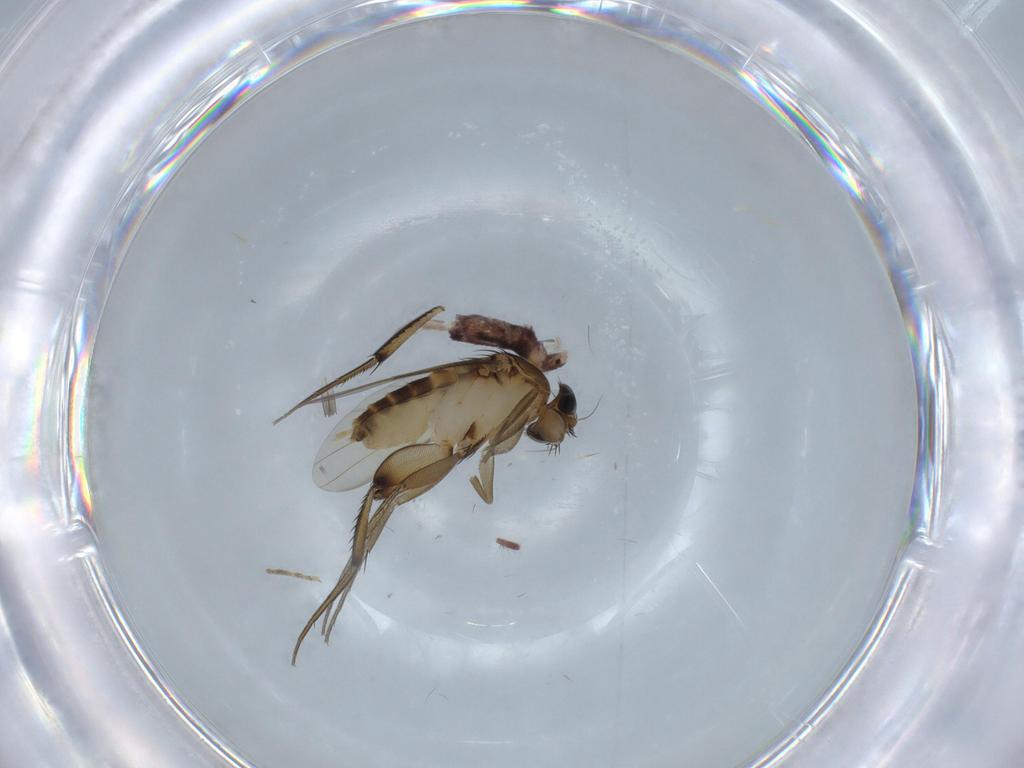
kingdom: Animalia
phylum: Arthropoda
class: Insecta
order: Diptera
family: Phoridae
